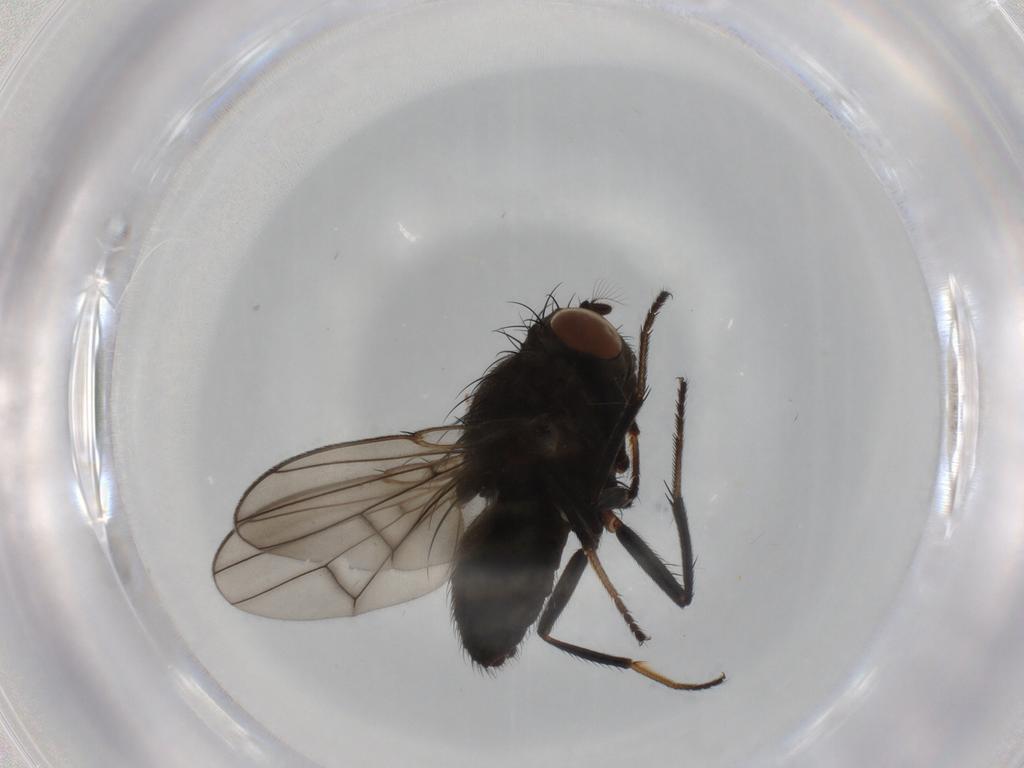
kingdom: Animalia
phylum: Arthropoda
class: Insecta
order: Diptera
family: Ephydridae
